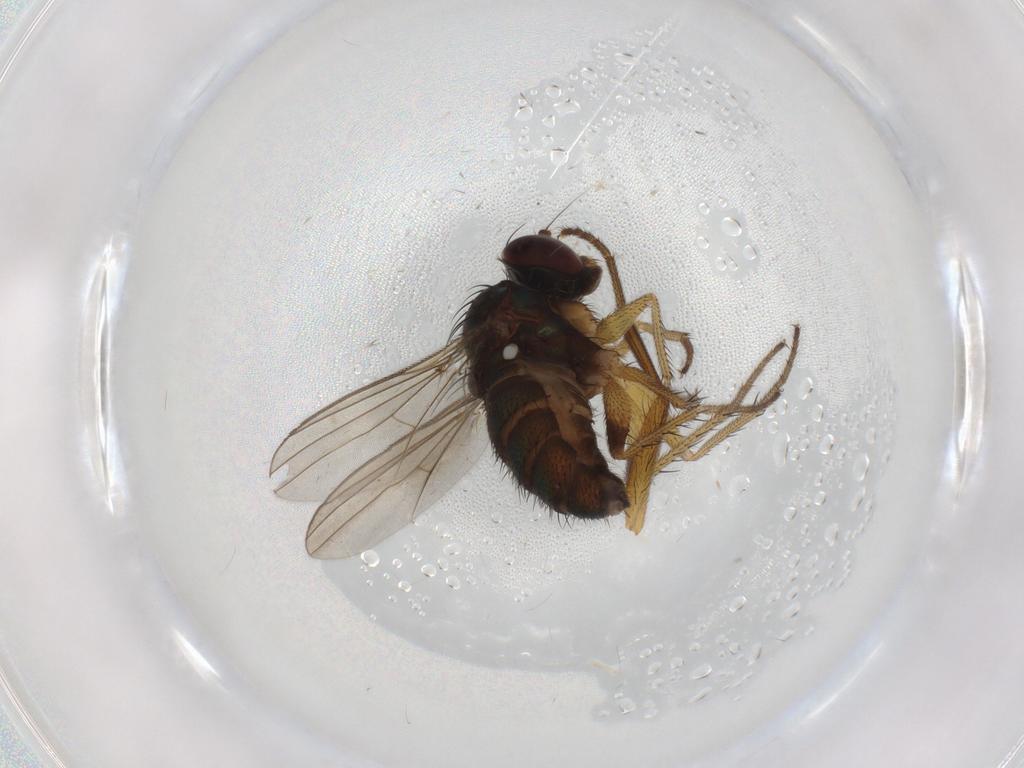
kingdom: Animalia
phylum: Arthropoda
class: Insecta
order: Diptera
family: Dolichopodidae
